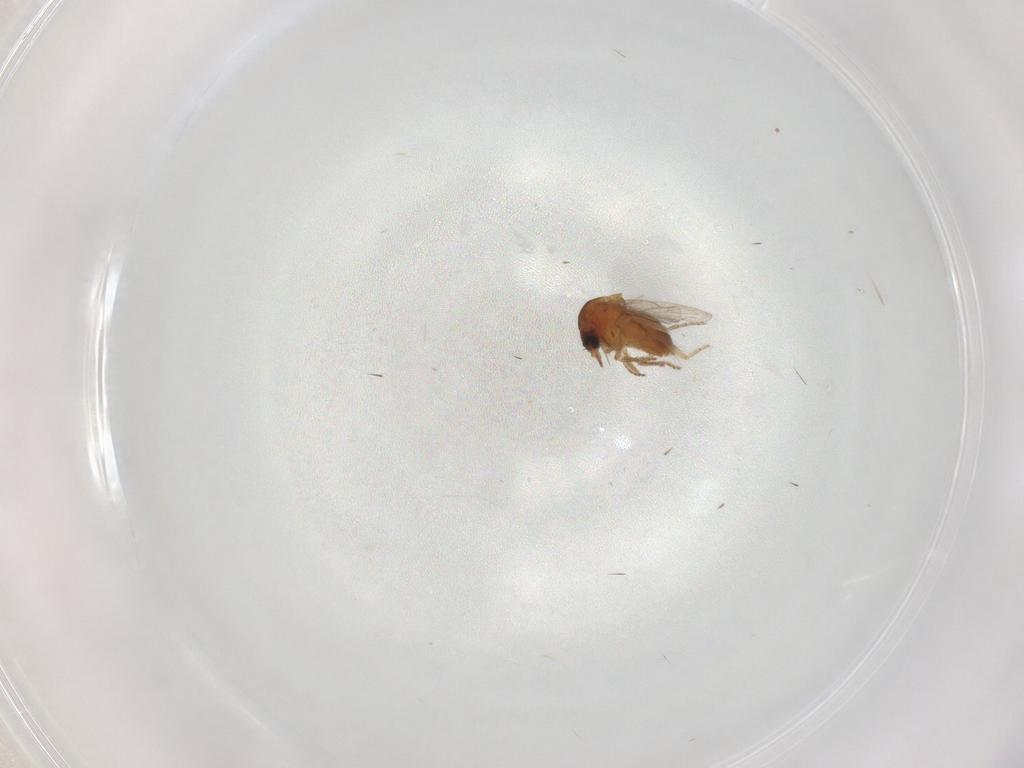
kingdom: Animalia
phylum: Arthropoda
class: Insecta
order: Diptera
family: Ceratopogonidae
